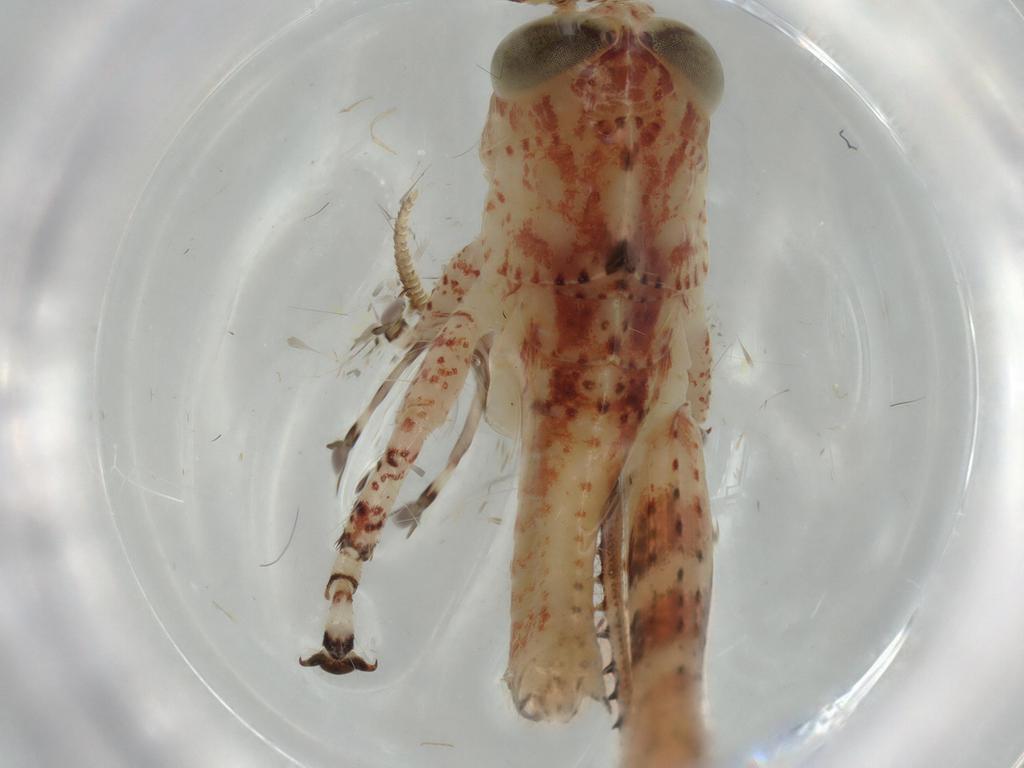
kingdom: Animalia
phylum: Arthropoda
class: Insecta
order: Orthoptera
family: Acrididae
